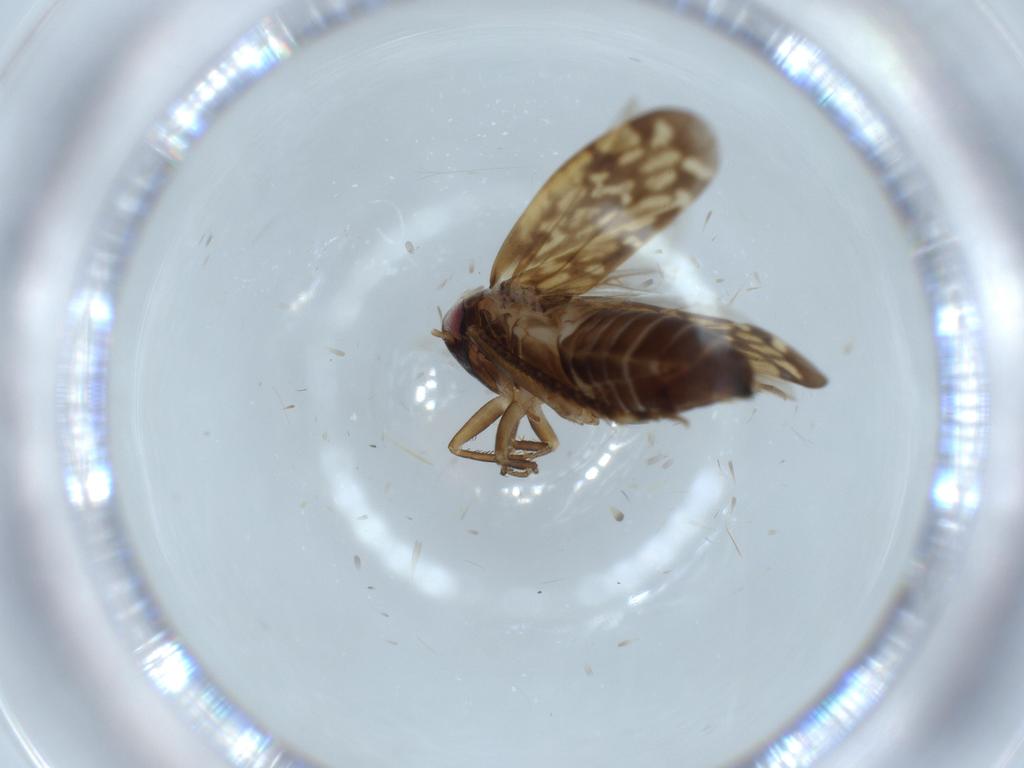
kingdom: Animalia
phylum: Arthropoda
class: Insecta
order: Hemiptera
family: Cicadellidae
